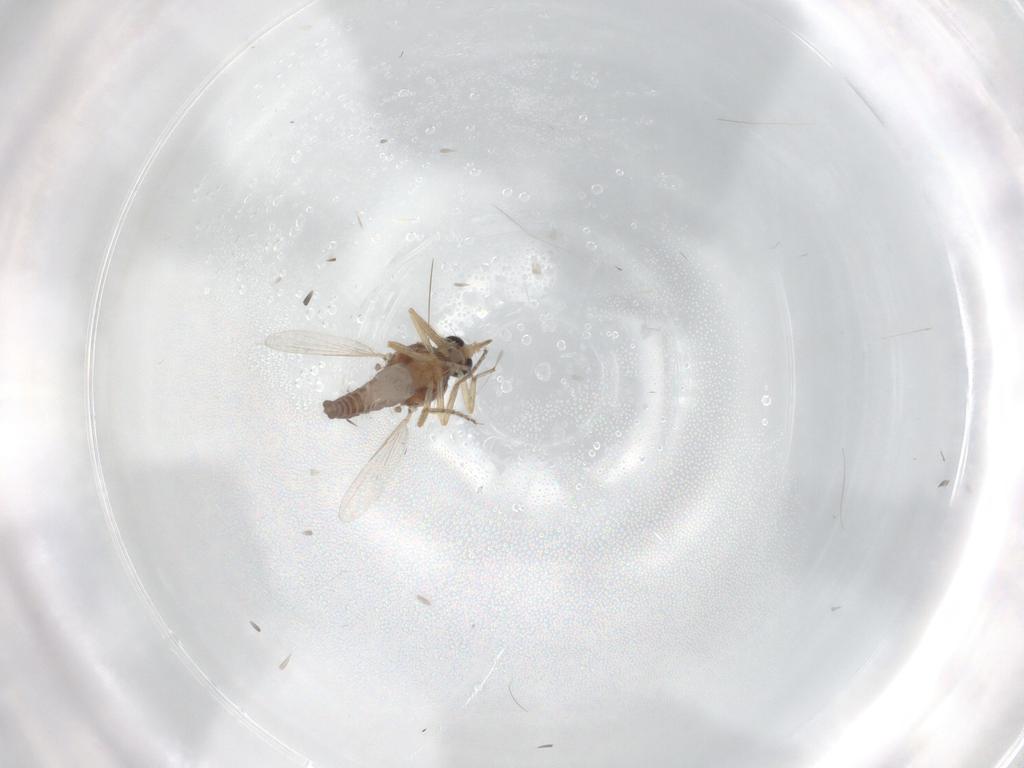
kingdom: Animalia
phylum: Arthropoda
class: Insecta
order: Diptera
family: Ceratopogonidae
